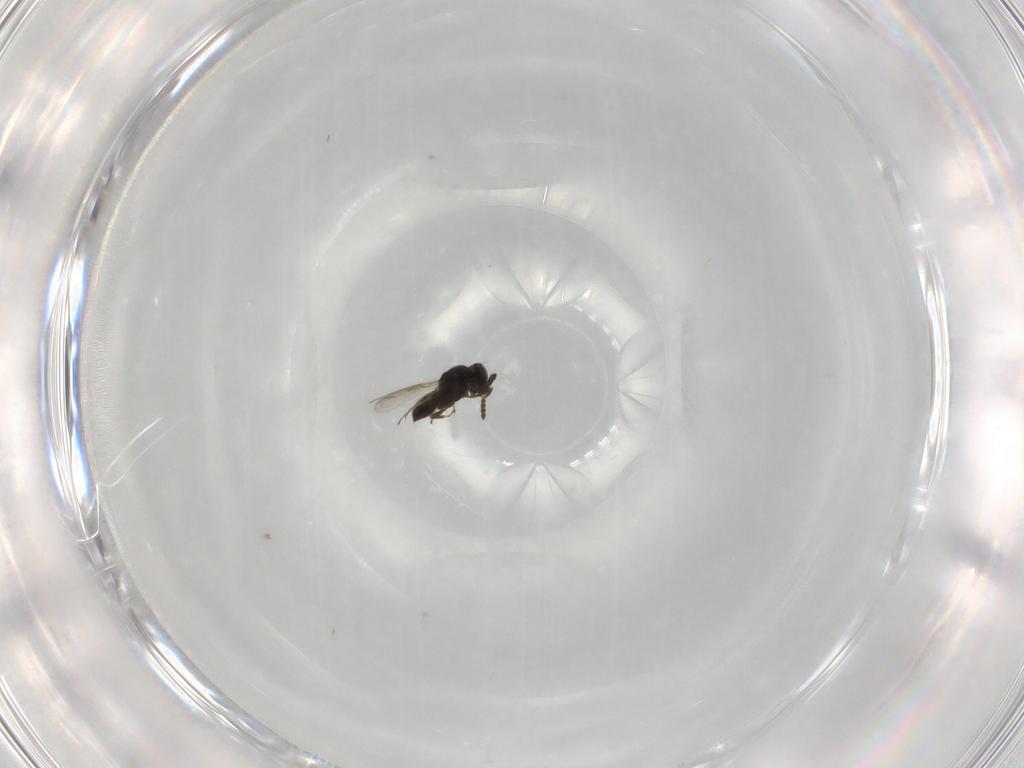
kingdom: Animalia
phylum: Arthropoda
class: Insecta
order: Hymenoptera
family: Scelionidae
